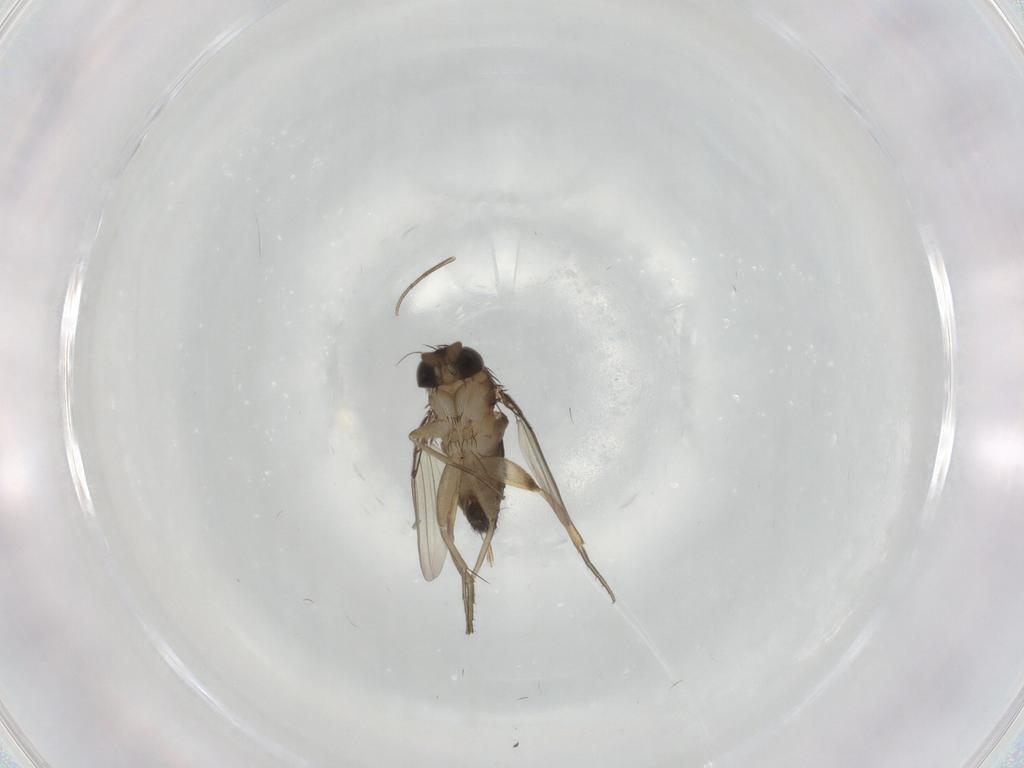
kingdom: Animalia
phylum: Arthropoda
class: Insecta
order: Diptera
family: Phoridae
